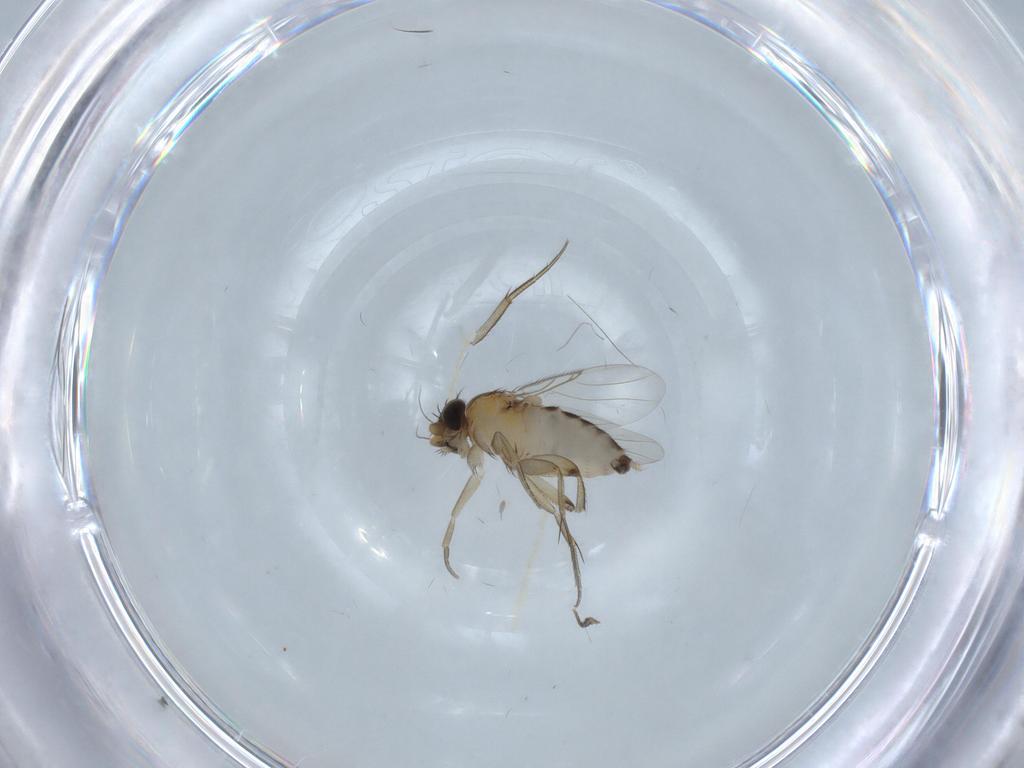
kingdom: Animalia
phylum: Arthropoda
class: Insecta
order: Diptera
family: Phoridae
